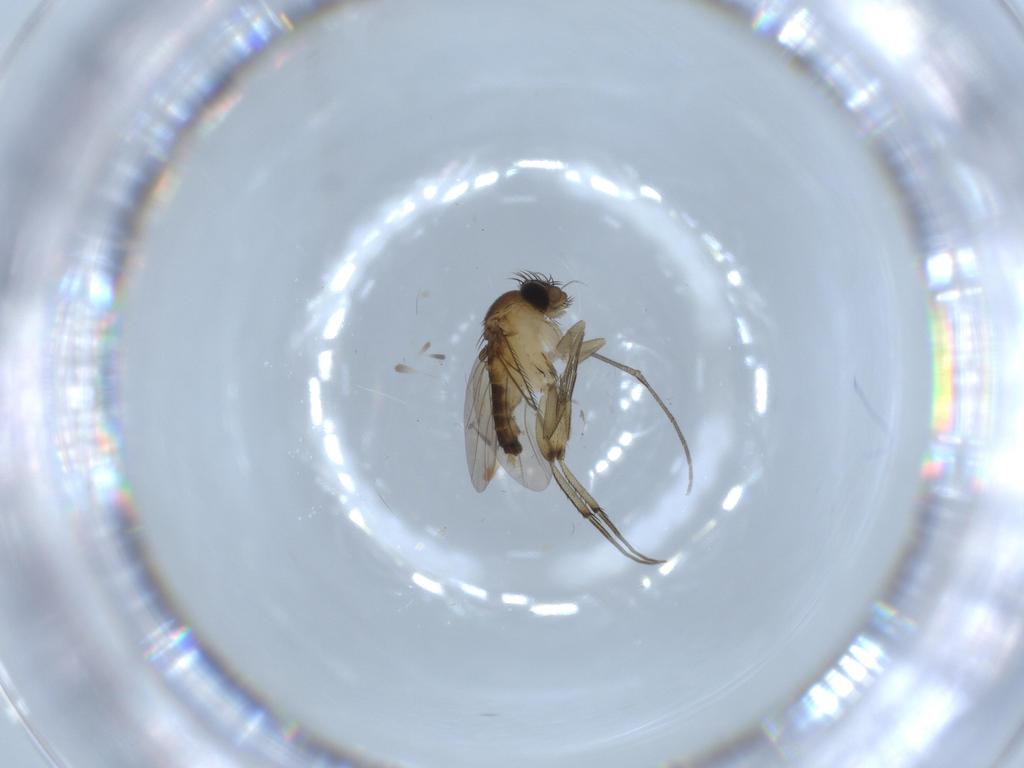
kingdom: Animalia
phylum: Arthropoda
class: Insecta
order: Diptera
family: Phoridae
